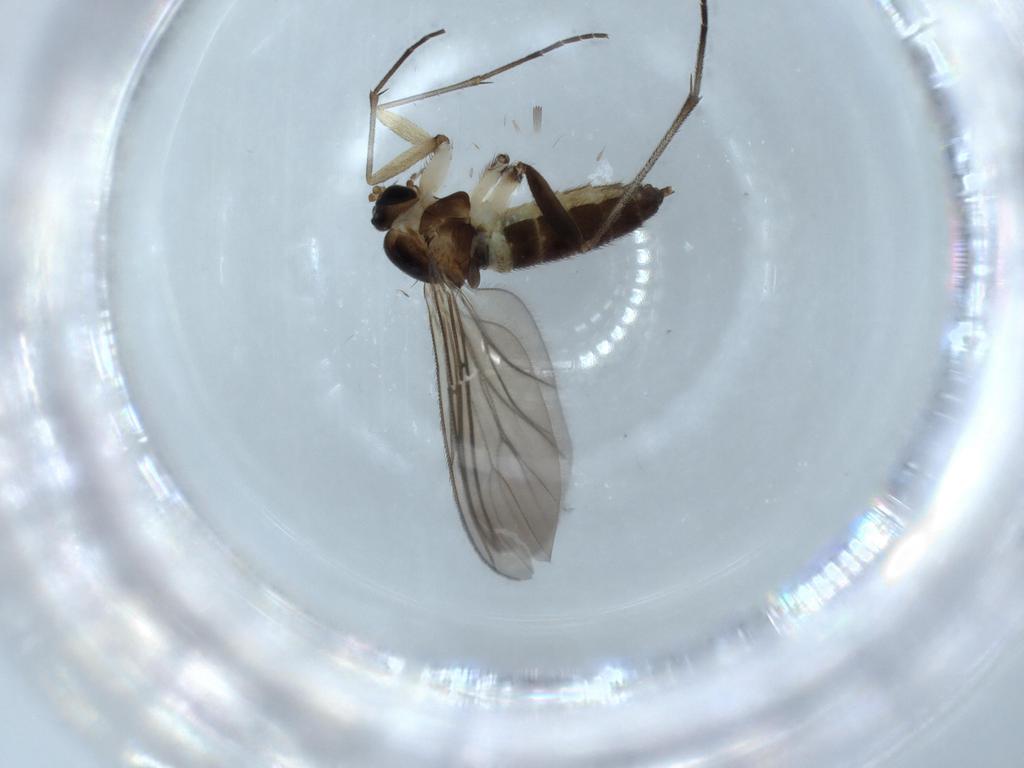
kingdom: Animalia
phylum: Arthropoda
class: Insecta
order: Diptera
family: Sciaridae
